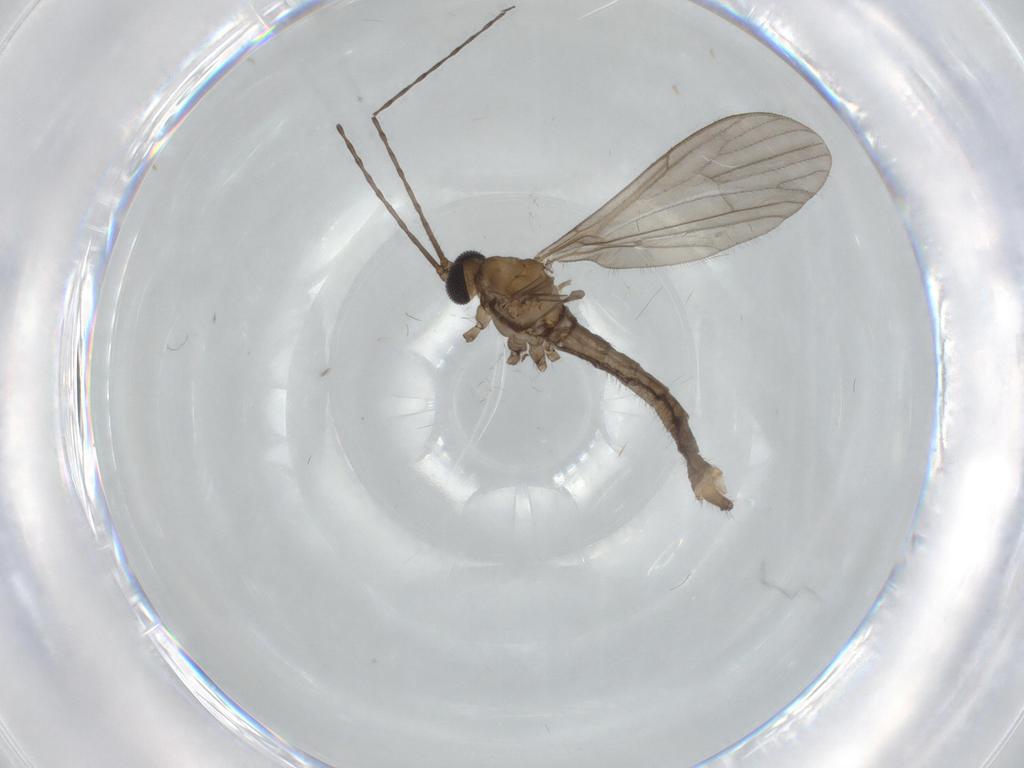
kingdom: Animalia
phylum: Arthropoda
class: Insecta
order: Diptera
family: Limoniidae
